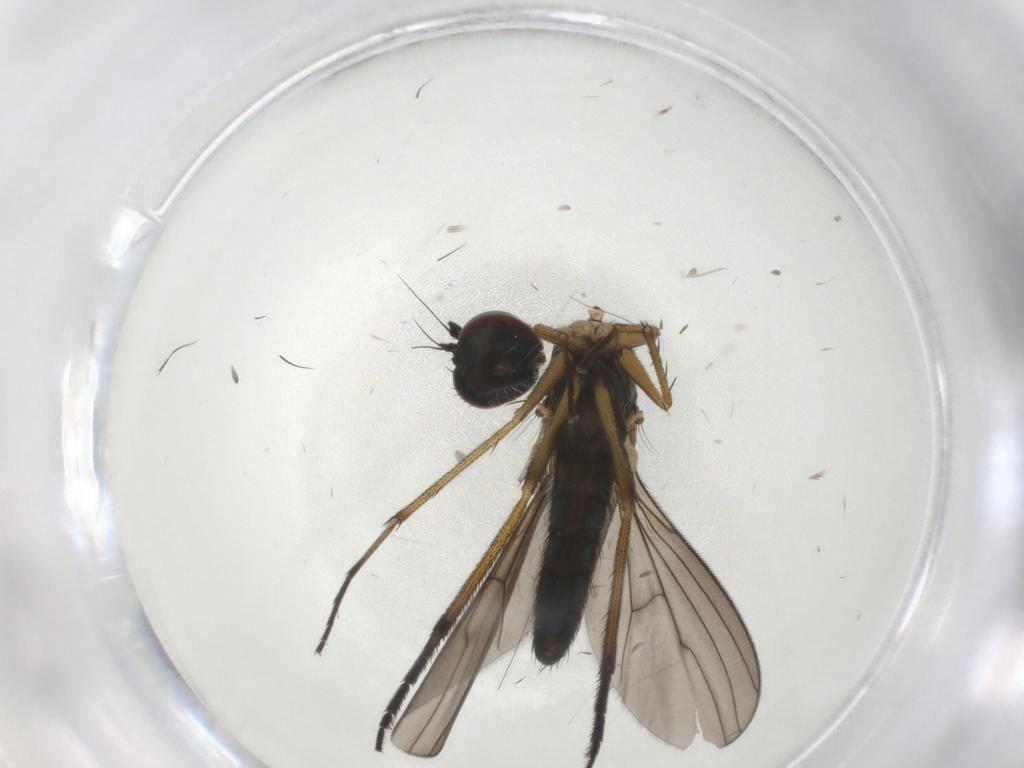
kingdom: Animalia
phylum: Arthropoda
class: Insecta
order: Diptera
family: Dolichopodidae
